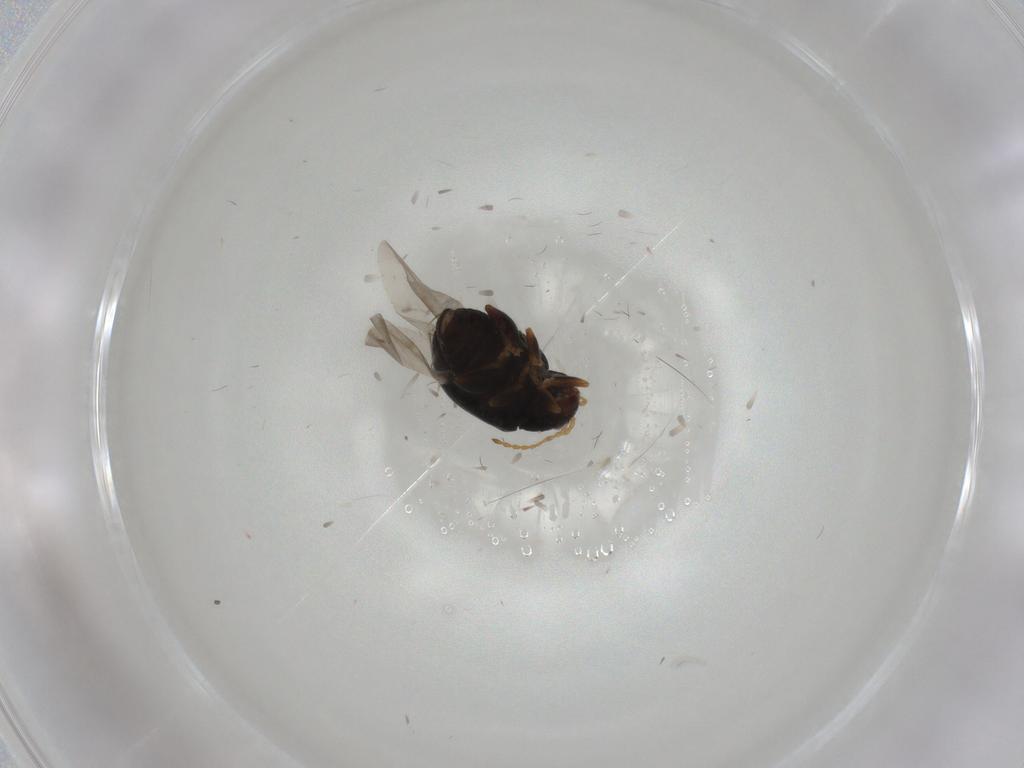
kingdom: Animalia
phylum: Arthropoda
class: Insecta
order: Coleoptera
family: Chrysomelidae
